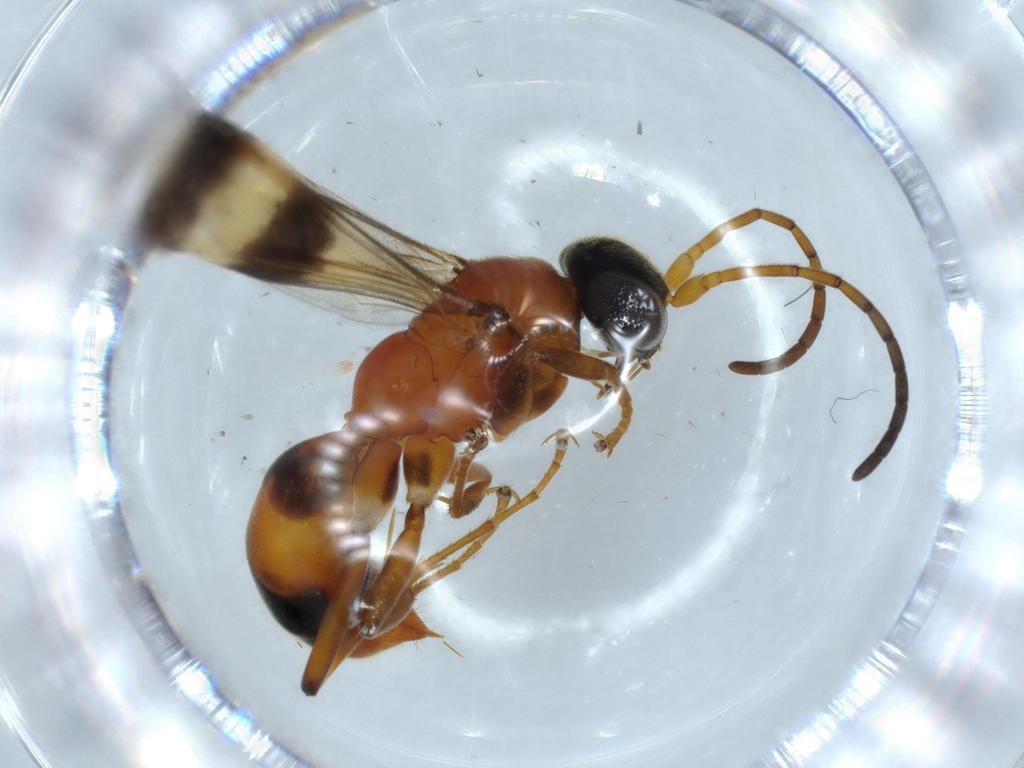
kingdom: Animalia
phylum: Arthropoda
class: Insecta
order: Hymenoptera
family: Pompilidae
